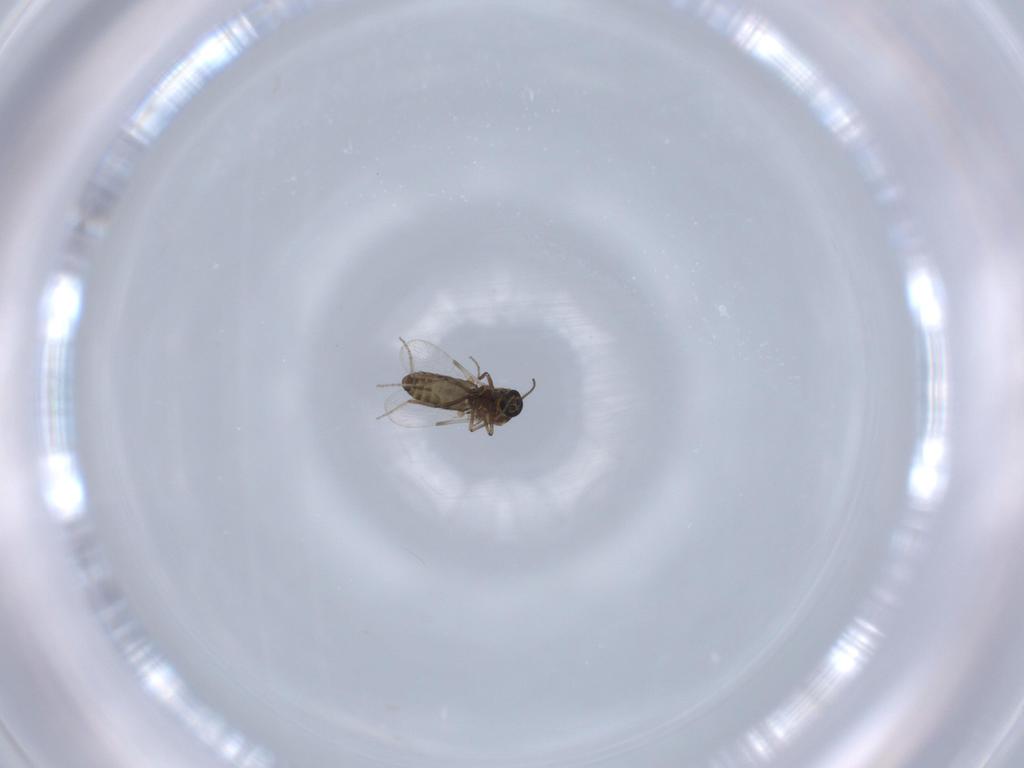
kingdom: Animalia
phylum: Arthropoda
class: Insecta
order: Diptera
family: Ceratopogonidae
